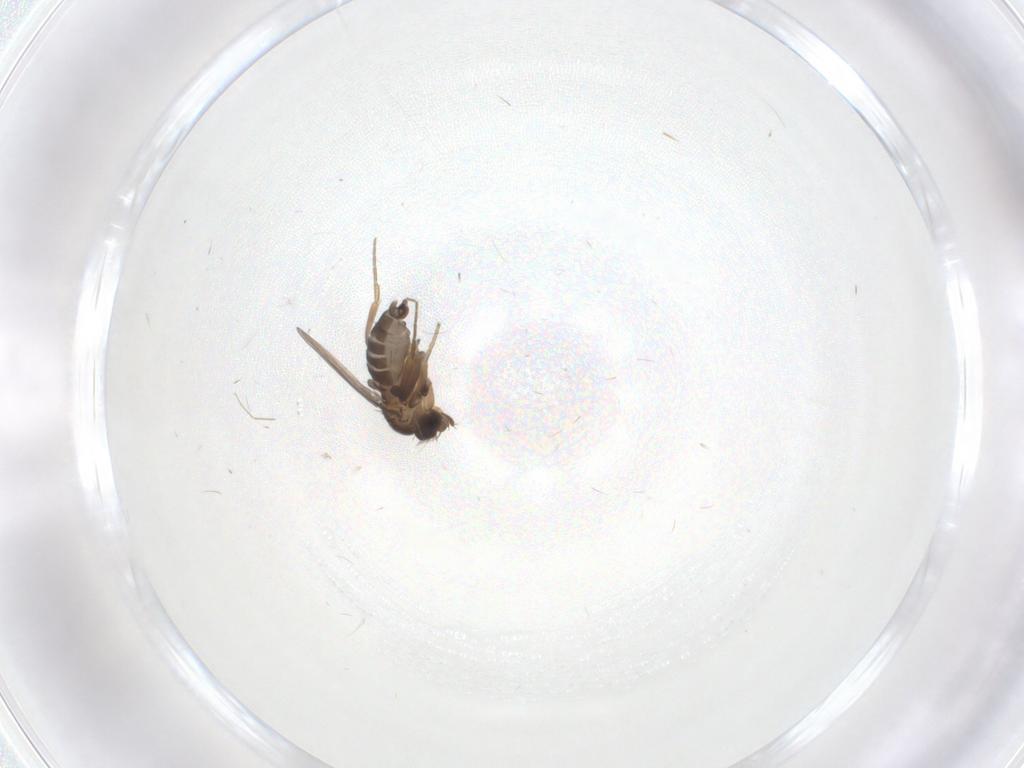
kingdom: Animalia
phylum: Arthropoda
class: Insecta
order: Diptera
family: Phoridae
